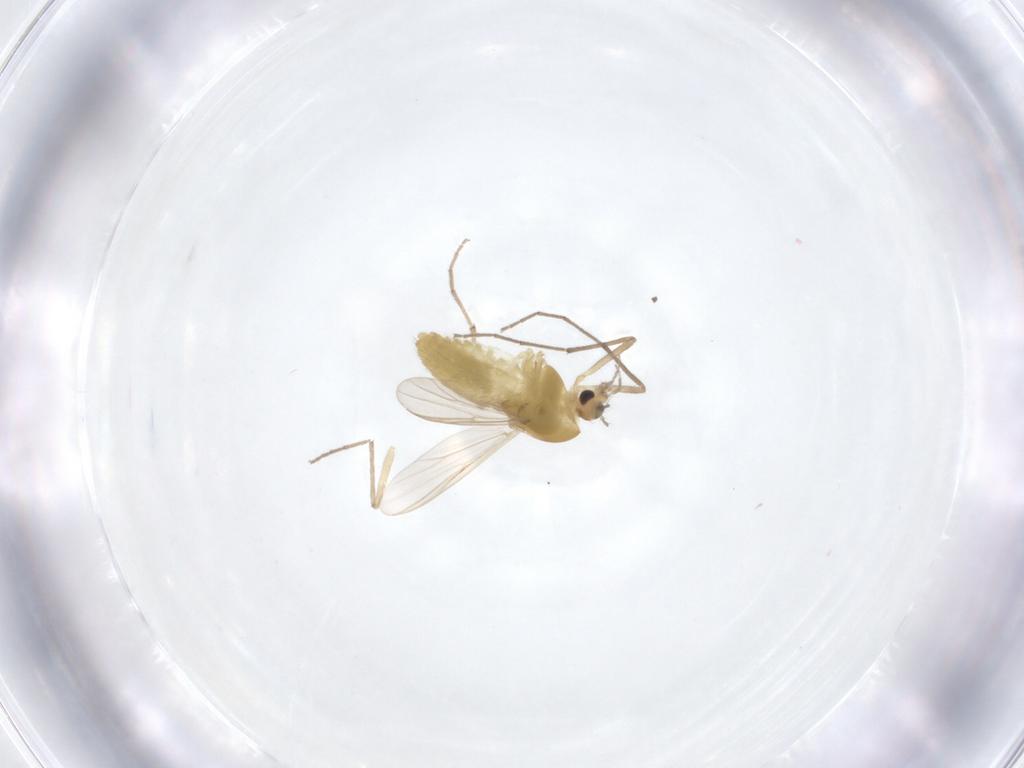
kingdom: Animalia
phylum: Arthropoda
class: Insecta
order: Diptera
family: Chironomidae
